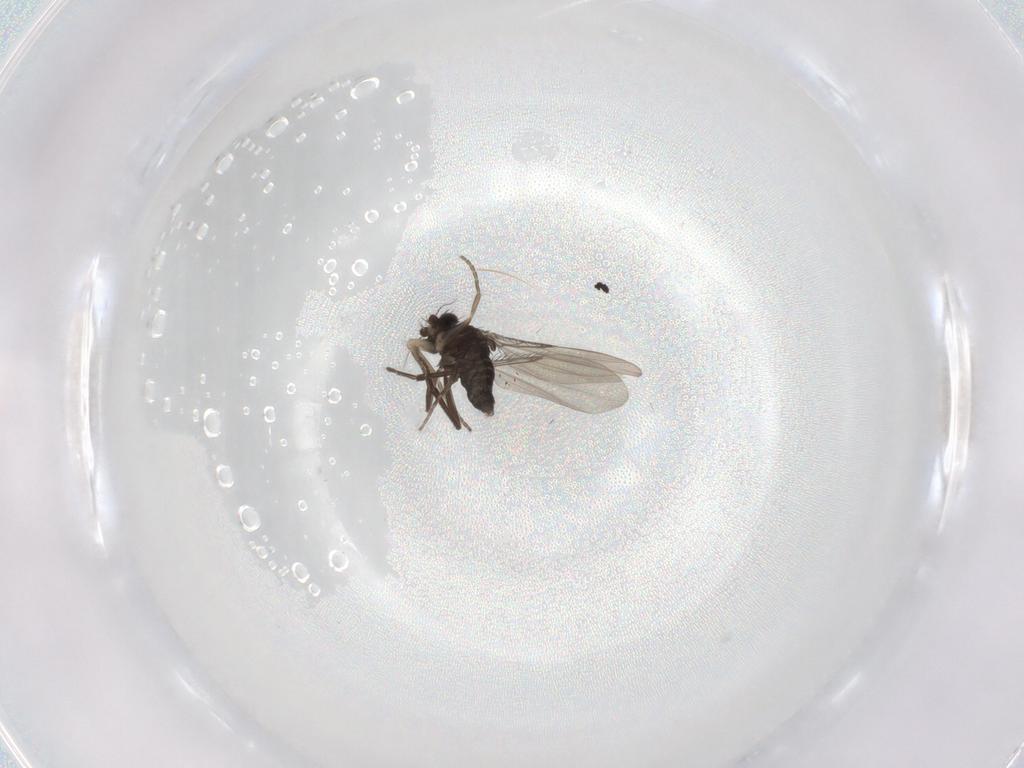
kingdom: Animalia
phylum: Arthropoda
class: Insecta
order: Diptera
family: Phoridae
